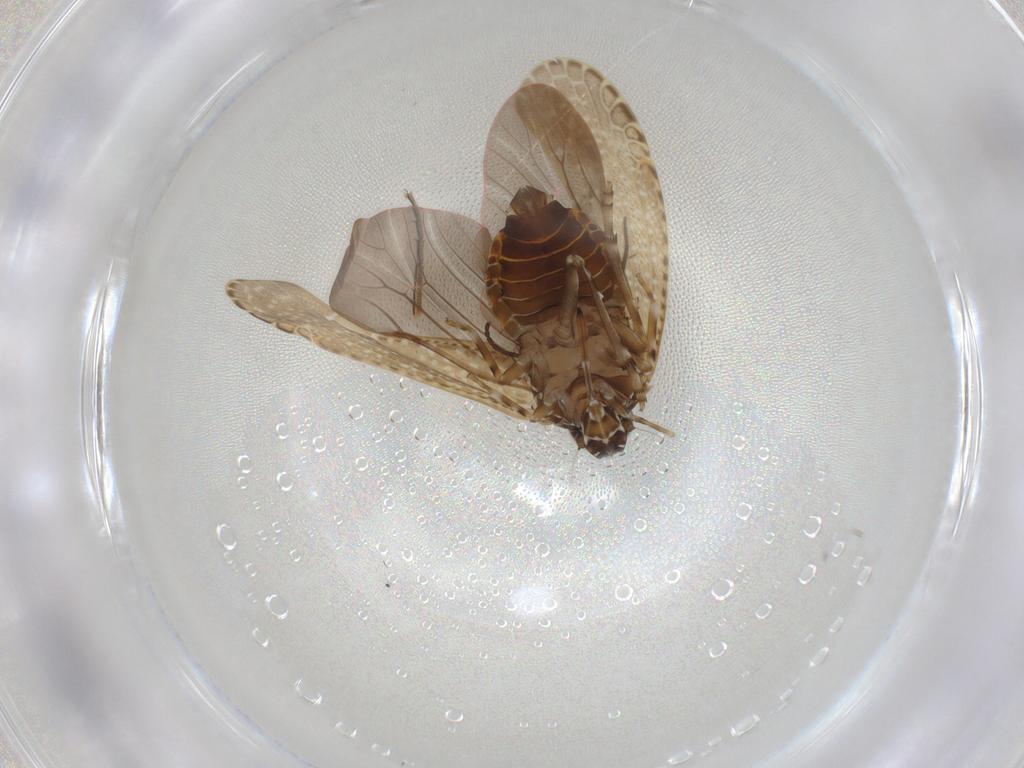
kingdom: Animalia
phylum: Arthropoda
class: Insecta
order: Hemiptera
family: Achilidae
